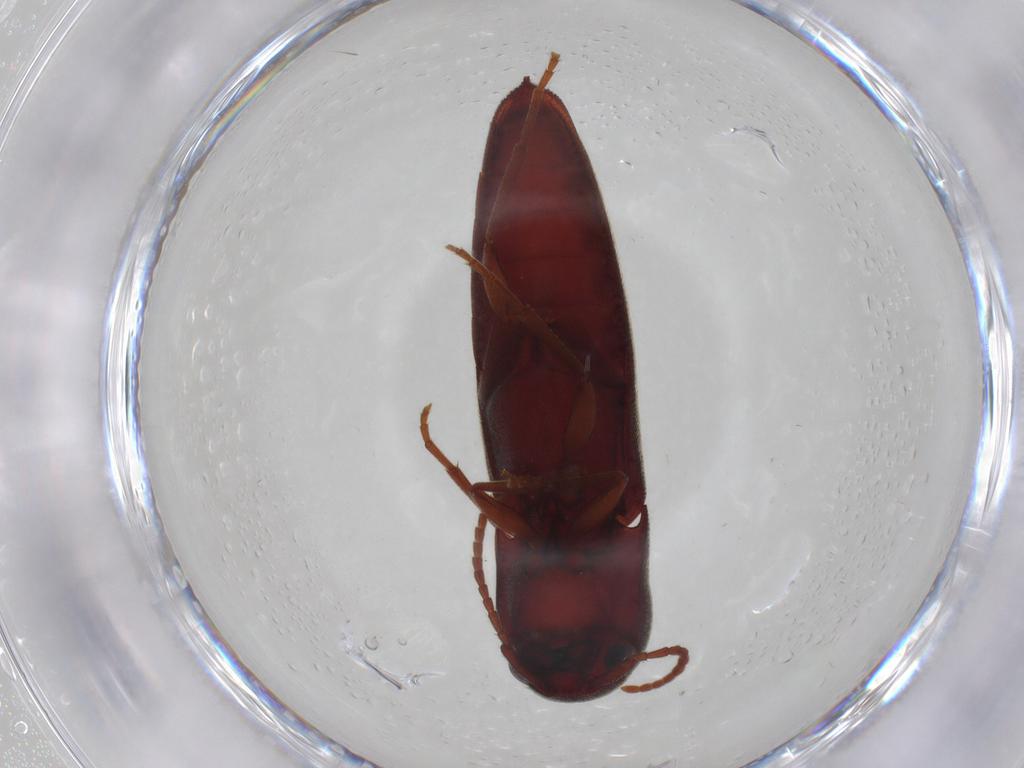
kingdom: Animalia
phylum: Arthropoda
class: Insecta
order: Coleoptera
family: Eucnemidae
